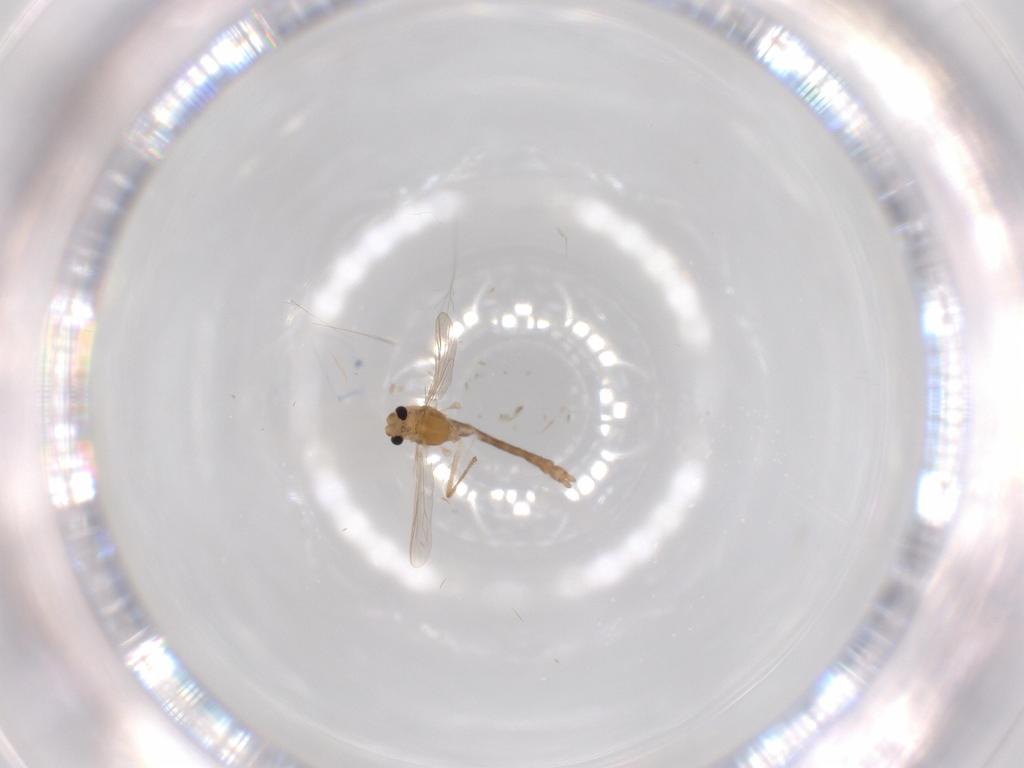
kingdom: Animalia
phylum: Arthropoda
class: Insecta
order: Diptera
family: Chironomidae
